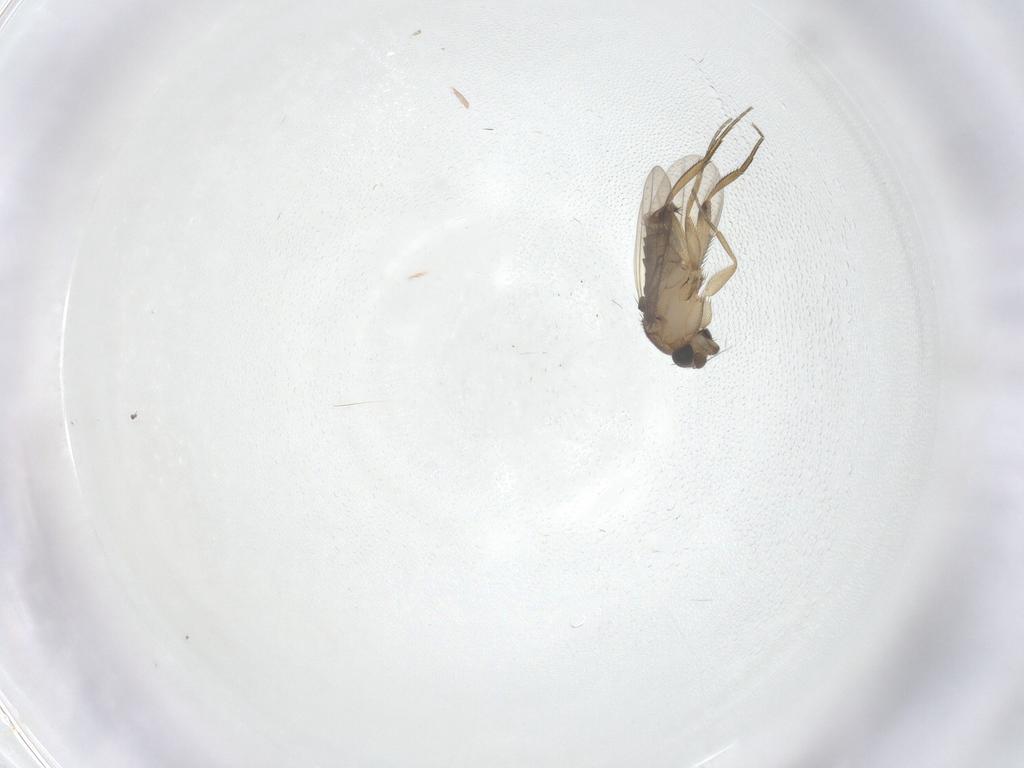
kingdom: Animalia
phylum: Arthropoda
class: Insecta
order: Diptera
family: Phoridae
